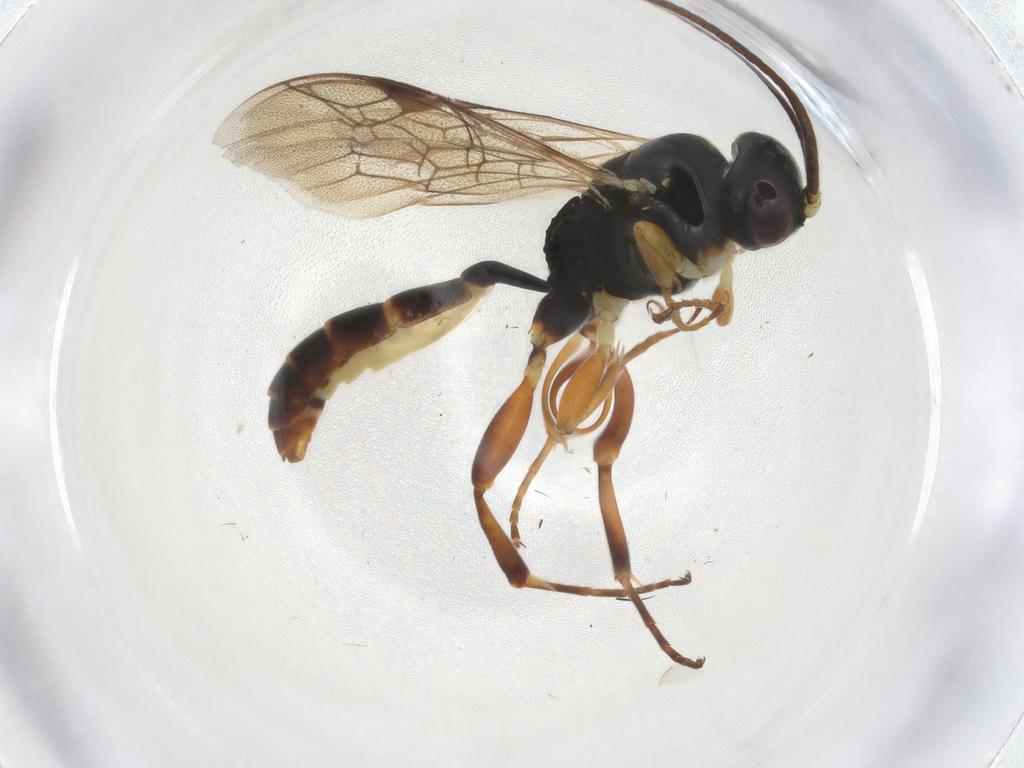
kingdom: Animalia
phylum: Arthropoda
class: Insecta
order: Hymenoptera
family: Ichneumonidae
